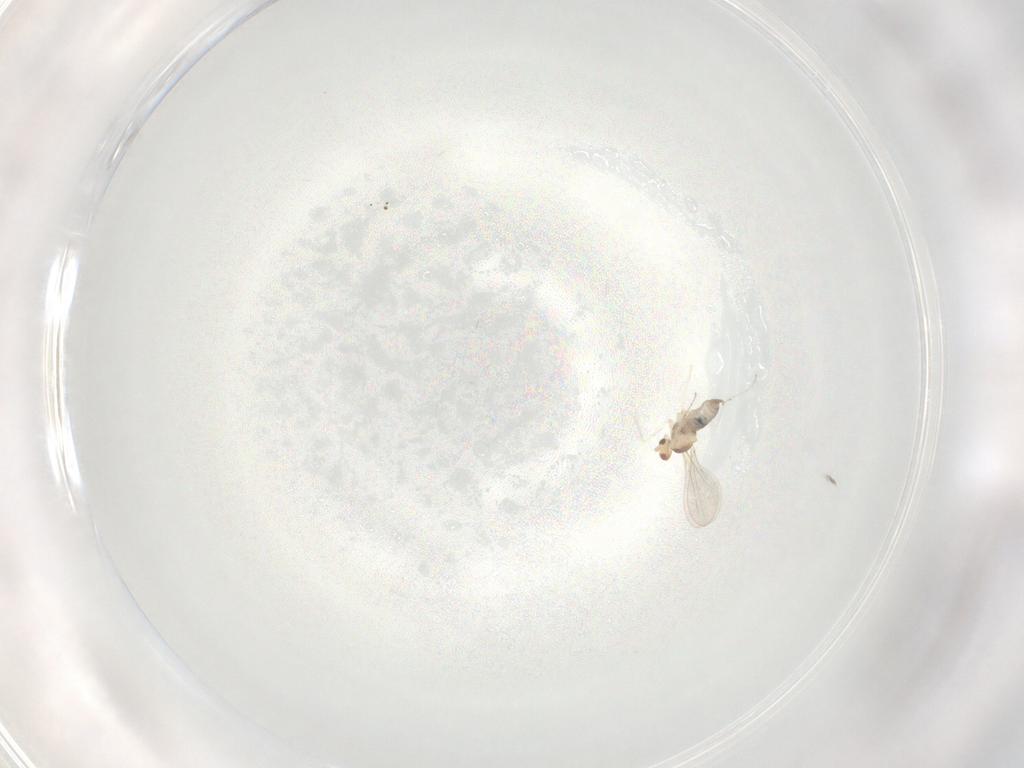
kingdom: Animalia
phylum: Arthropoda
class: Insecta
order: Diptera
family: Cecidomyiidae
